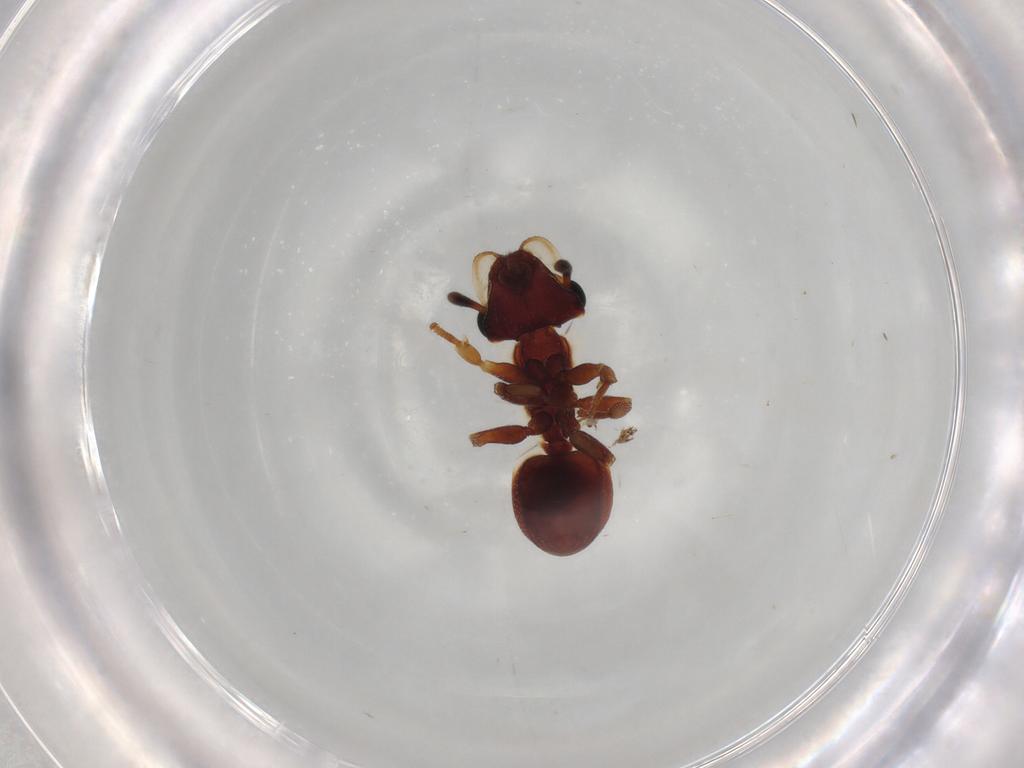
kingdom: Animalia
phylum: Arthropoda
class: Insecta
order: Hymenoptera
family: Formicidae
